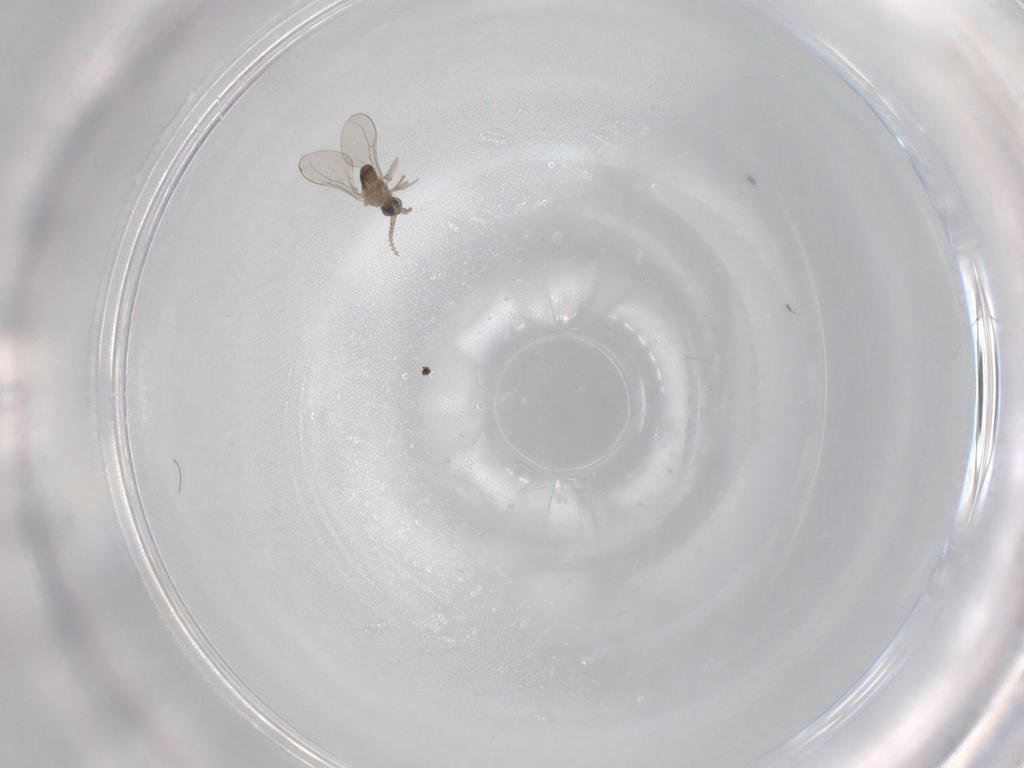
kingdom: Animalia
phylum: Arthropoda
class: Insecta
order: Diptera
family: Cecidomyiidae
